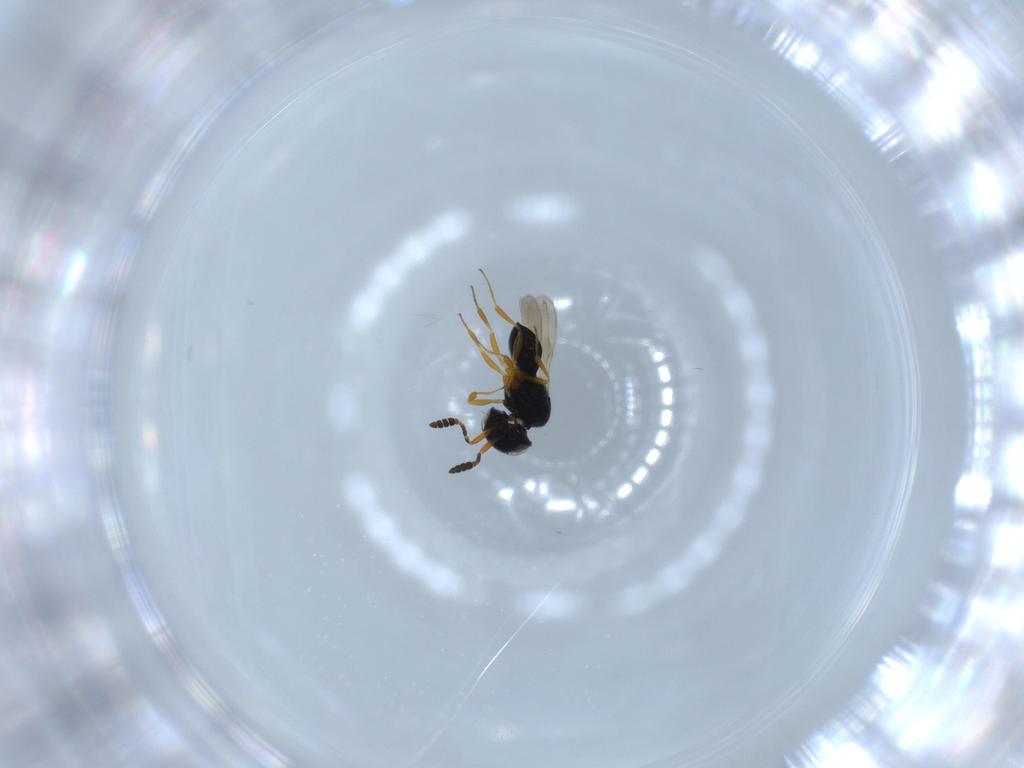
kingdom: Animalia
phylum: Arthropoda
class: Insecta
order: Hymenoptera
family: Scelionidae
